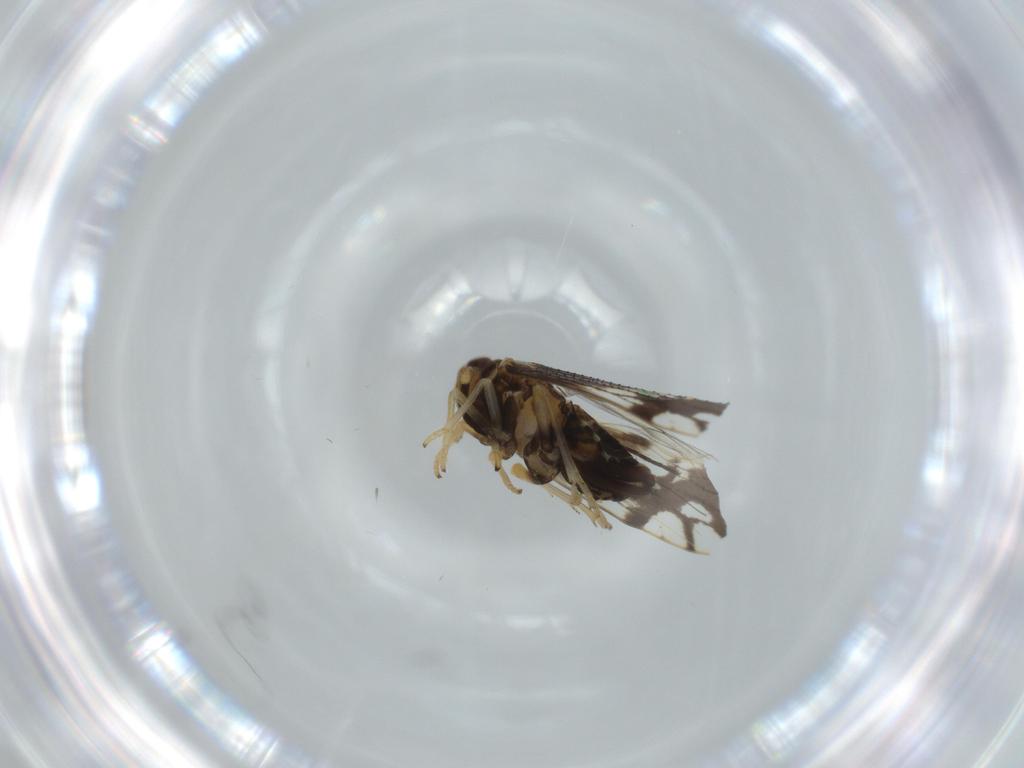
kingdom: Animalia
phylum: Arthropoda
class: Insecta
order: Hemiptera
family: Delphacidae
